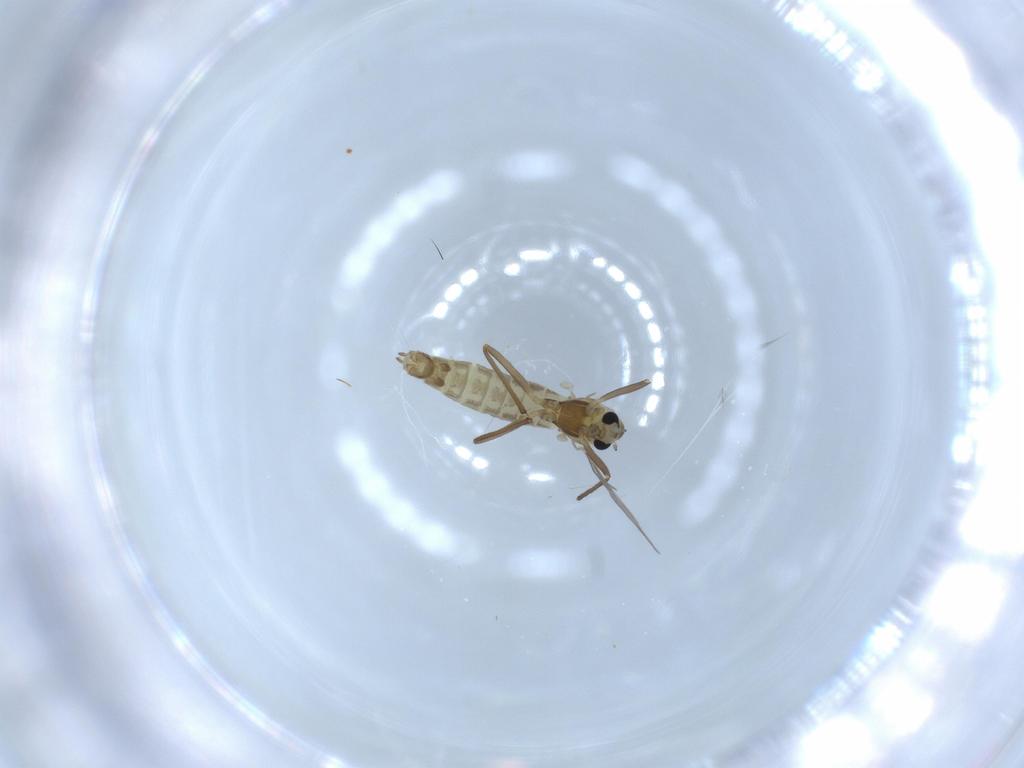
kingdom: Animalia
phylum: Arthropoda
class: Insecta
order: Diptera
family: Chironomidae
